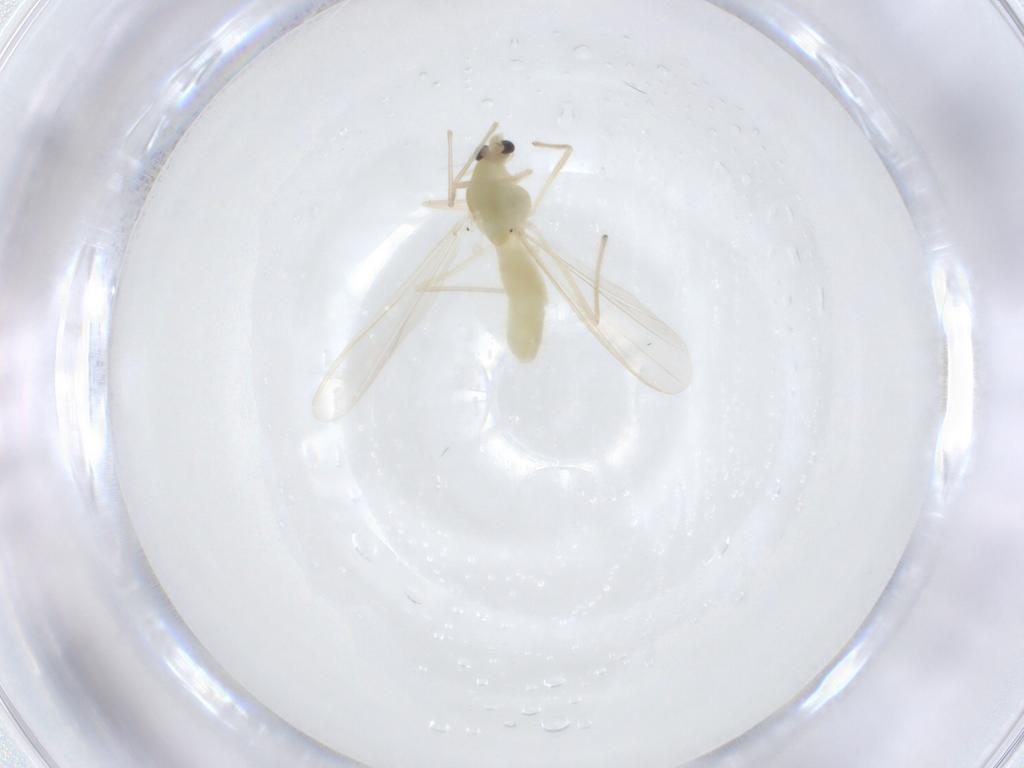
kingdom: Animalia
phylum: Arthropoda
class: Insecta
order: Diptera
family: Chironomidae
